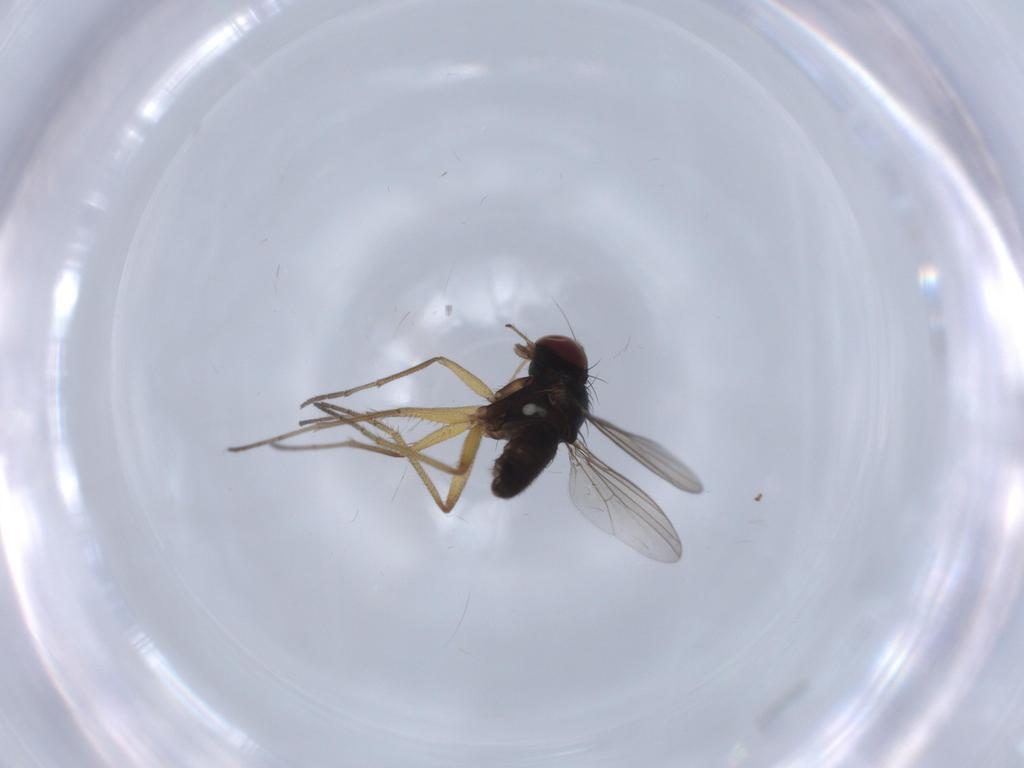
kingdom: Animalia
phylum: Arthropoda
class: Insecta
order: Diptera
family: Dolichopodidae
